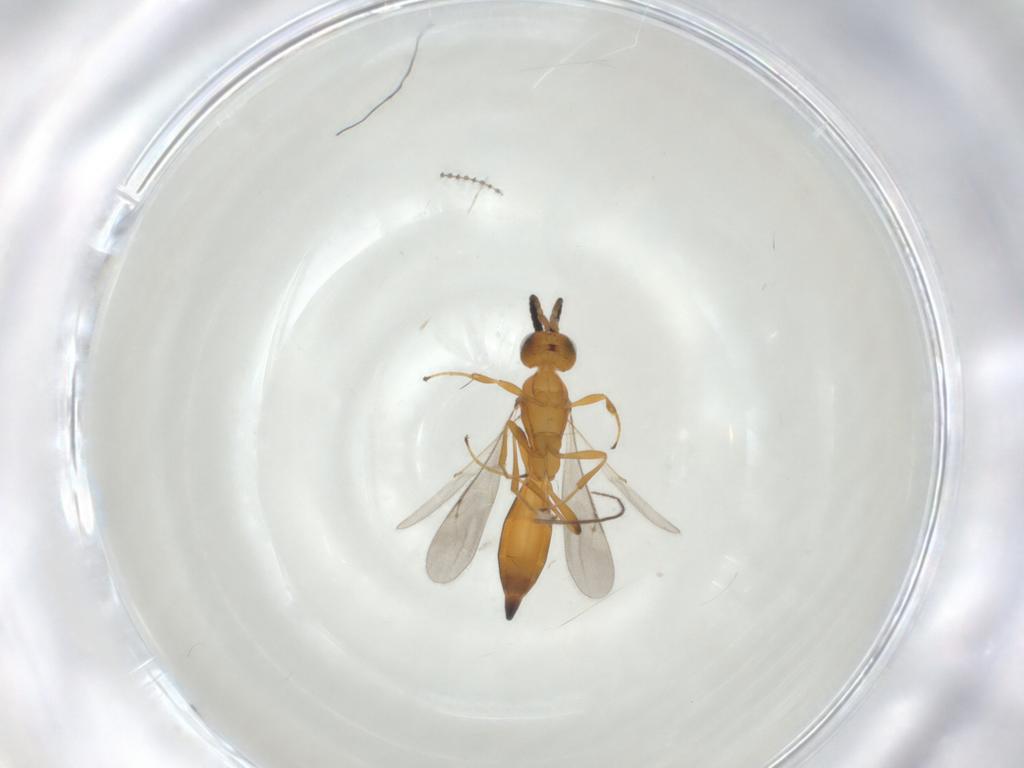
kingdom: Animalia
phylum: Arthropoda
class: Insecta
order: Hymenoptera
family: Scelionidae
